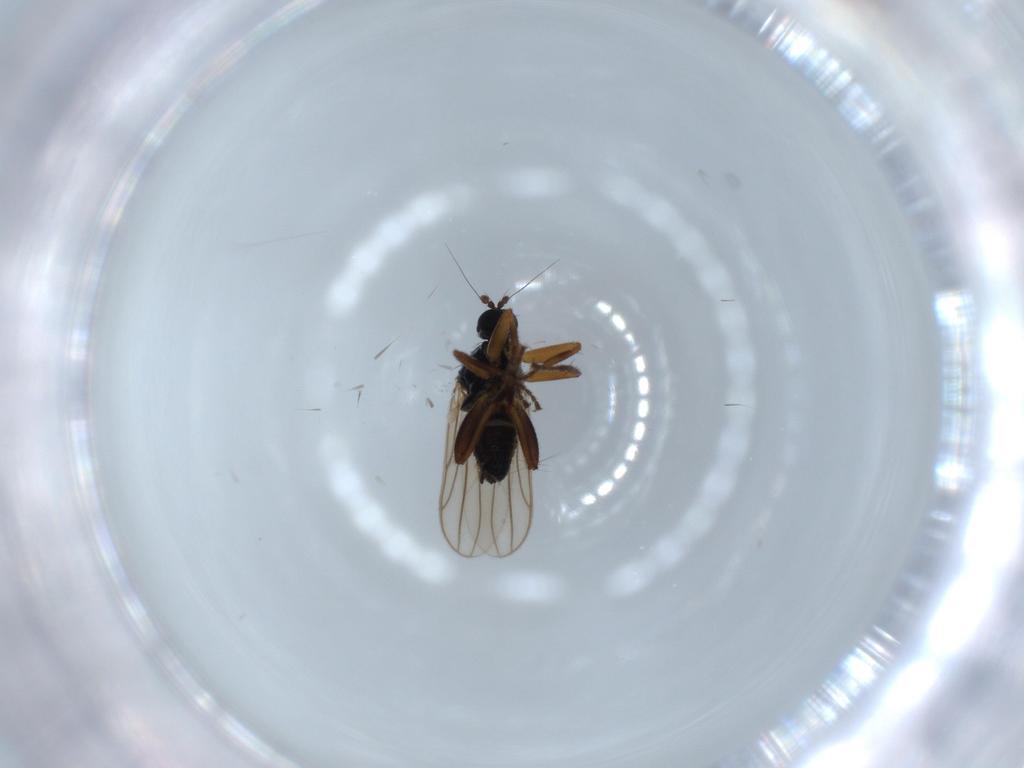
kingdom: Animalia
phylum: Arthropoda
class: Insecta
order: Diptera
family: Hybotidae
